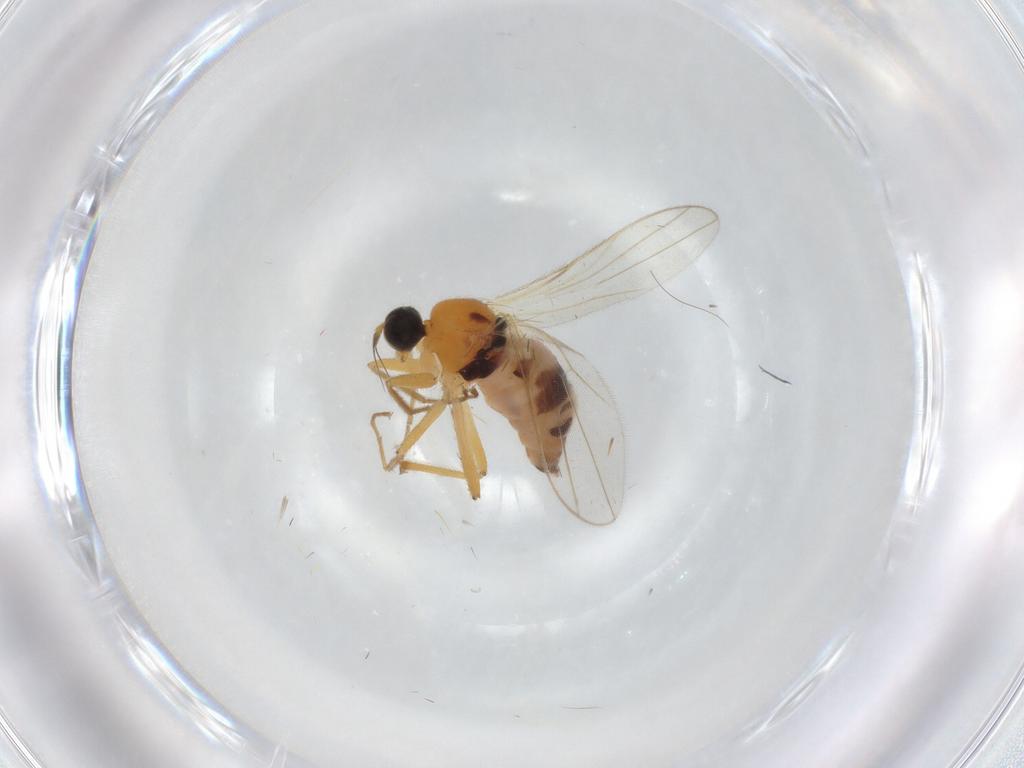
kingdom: Animalia
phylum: Arthropoda
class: Insecta
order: Diptera
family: Hybotidae
